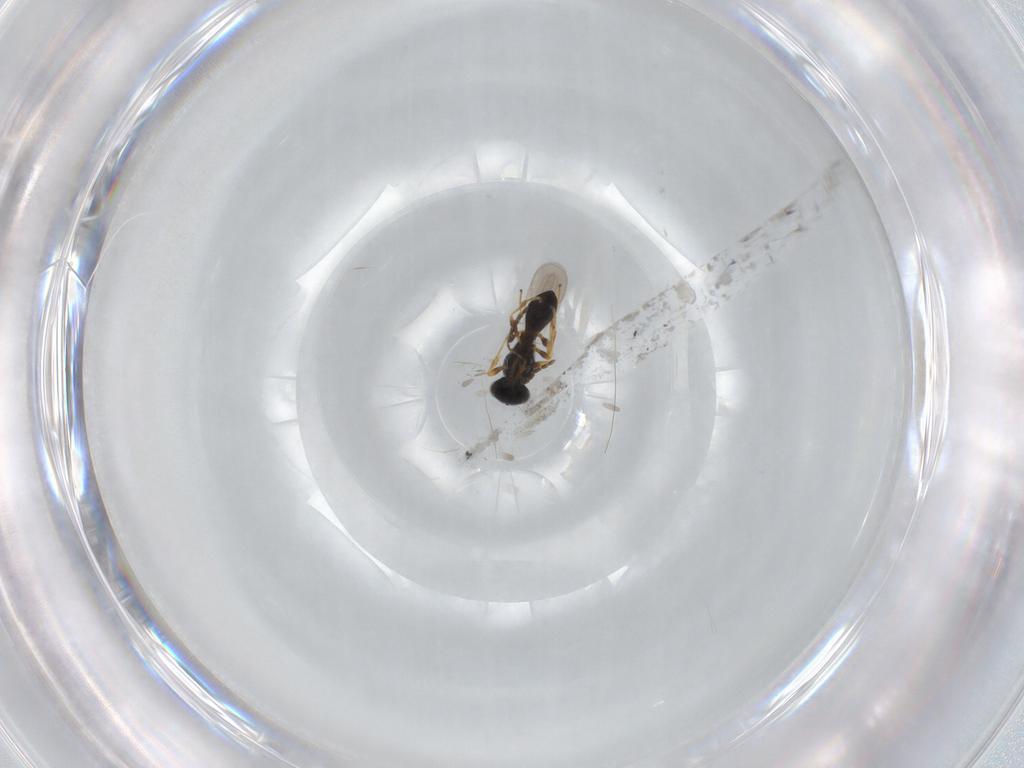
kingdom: Animalia
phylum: Arthropoda
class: Insecta
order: Hymenoptera
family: Platygastridae
